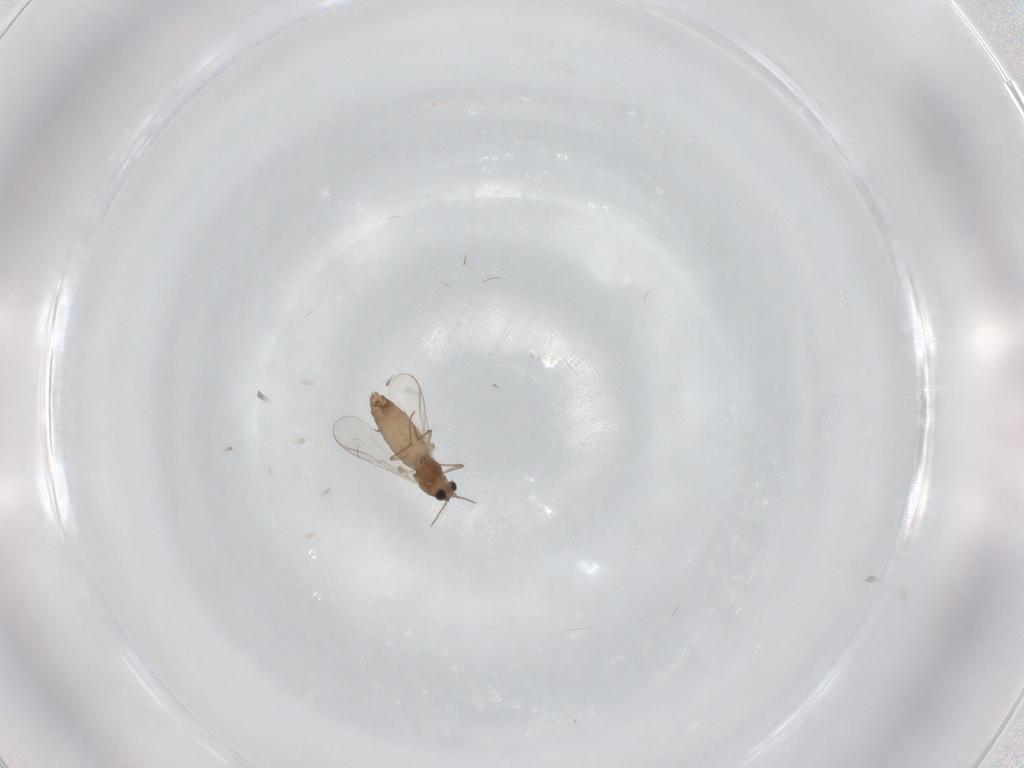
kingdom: Animalia
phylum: Arthropoda
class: Insecta
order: Diptera
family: Chironomidae
